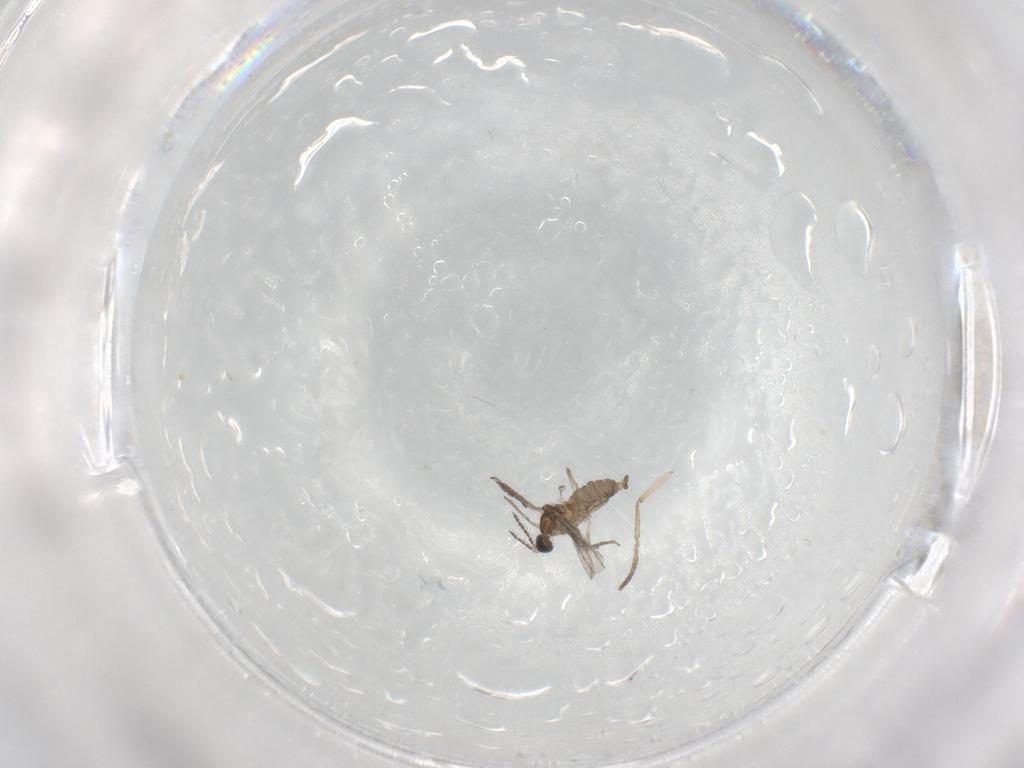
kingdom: Animalia
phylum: Arthropoda
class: Insecta
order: Diptera
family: Cecidomyiidae
